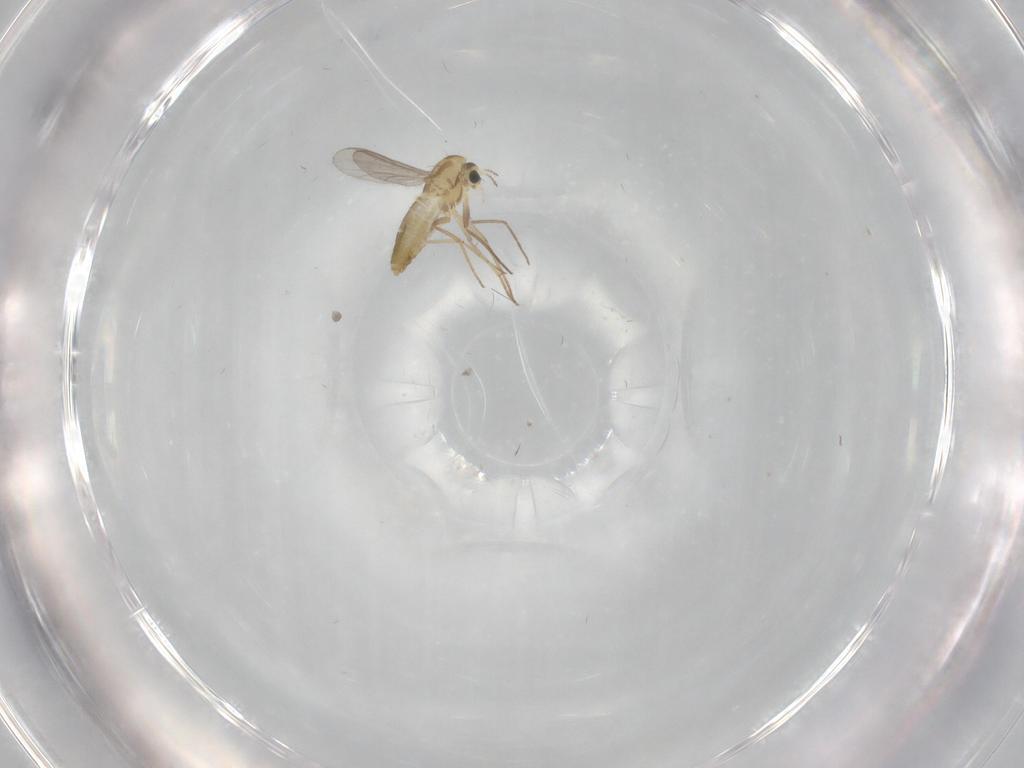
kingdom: Animalia
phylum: Arthropoda
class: Insecta
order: Diptera
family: Chironomidae
